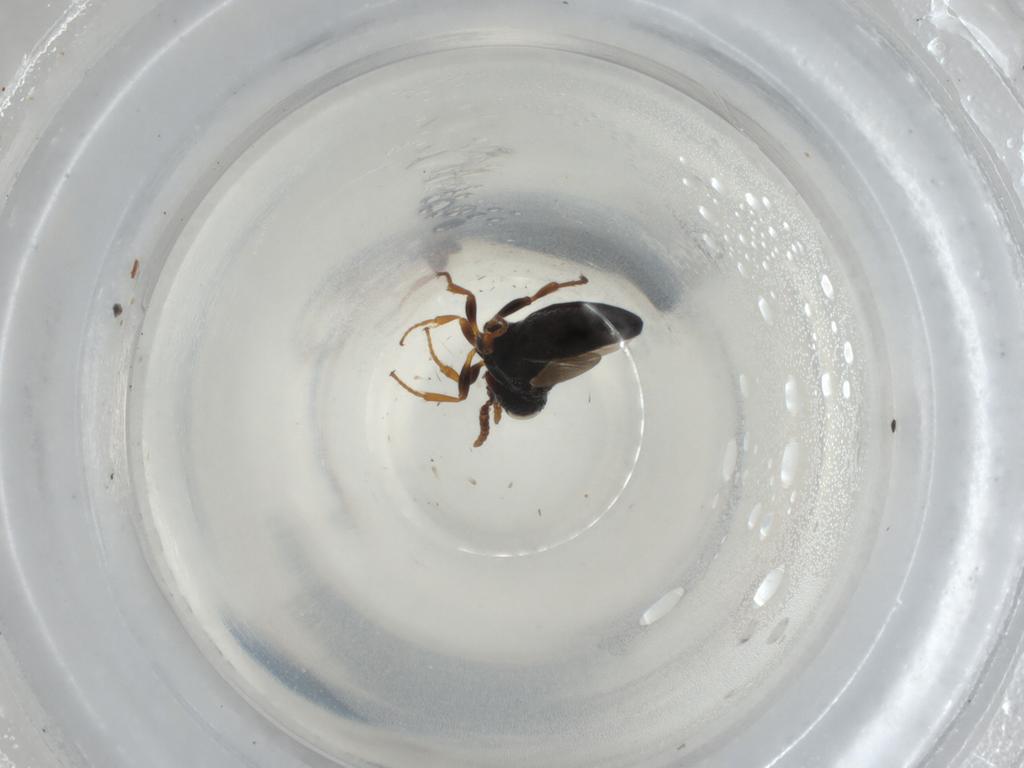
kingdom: Animalia
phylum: Arthropoda
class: Insecta
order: Hymenoptera
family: Scelionidae
